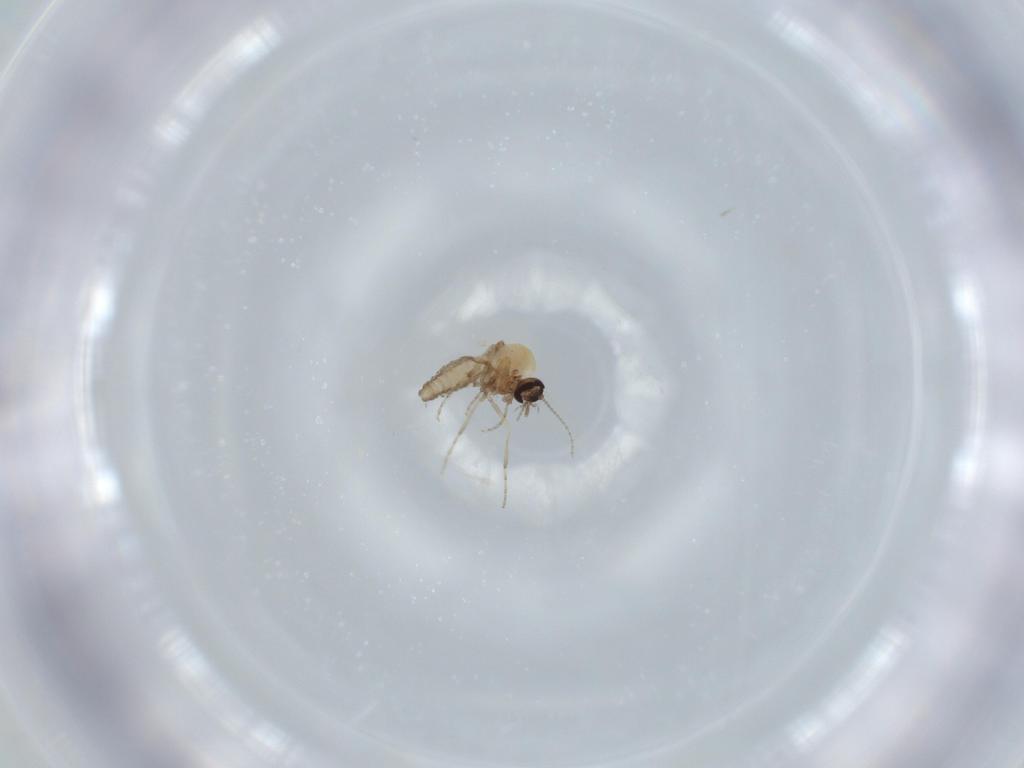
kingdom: Animalia
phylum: Arthropoda
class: Insecta
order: Diptera
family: Ceratopogonidae
